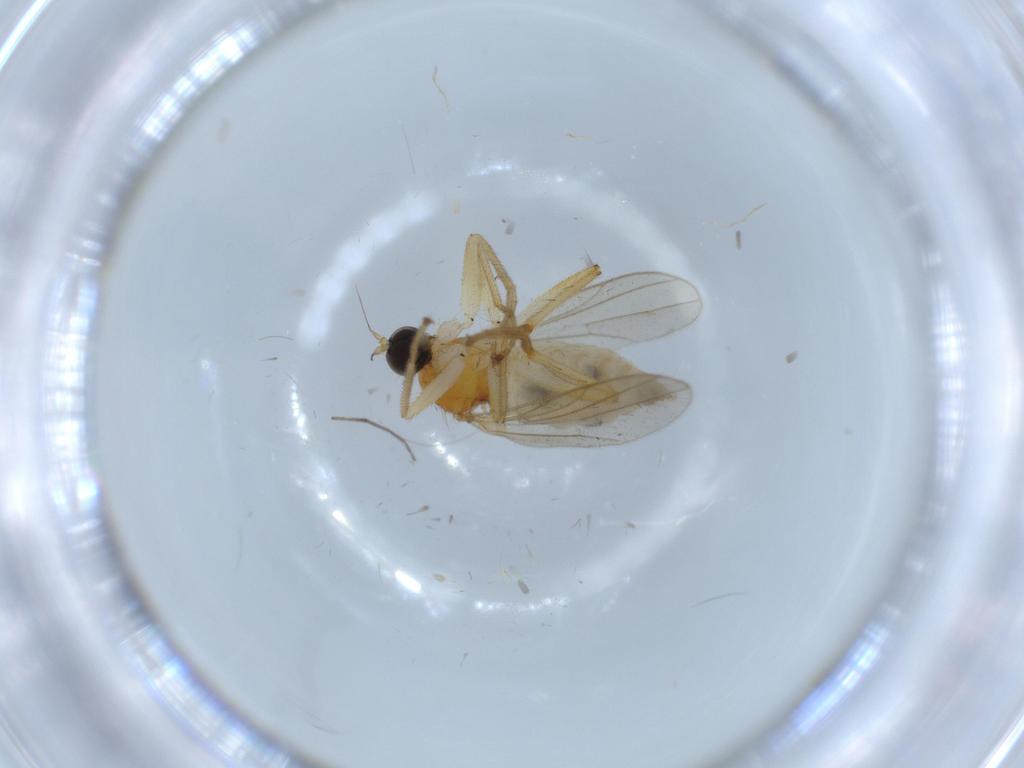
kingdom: Animalia
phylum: Arthropoda
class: Insecta
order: Diptera
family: Hybotidae
